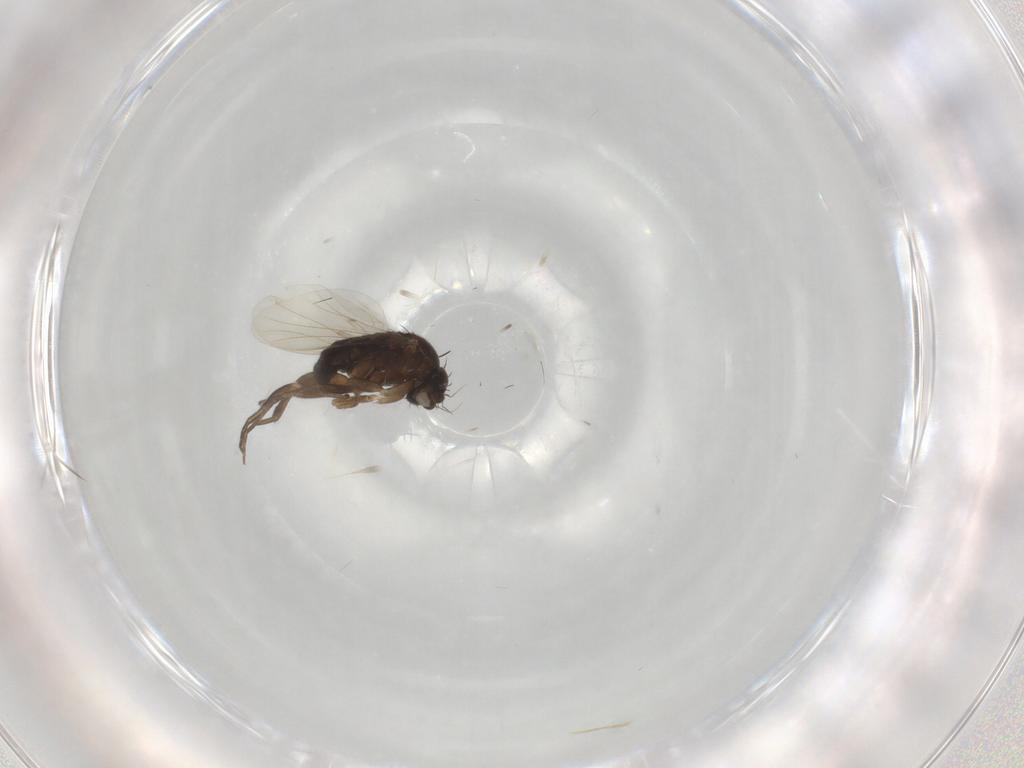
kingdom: Animalia
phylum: Arthropoda
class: Insecta
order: Diptera
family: Phoridae
